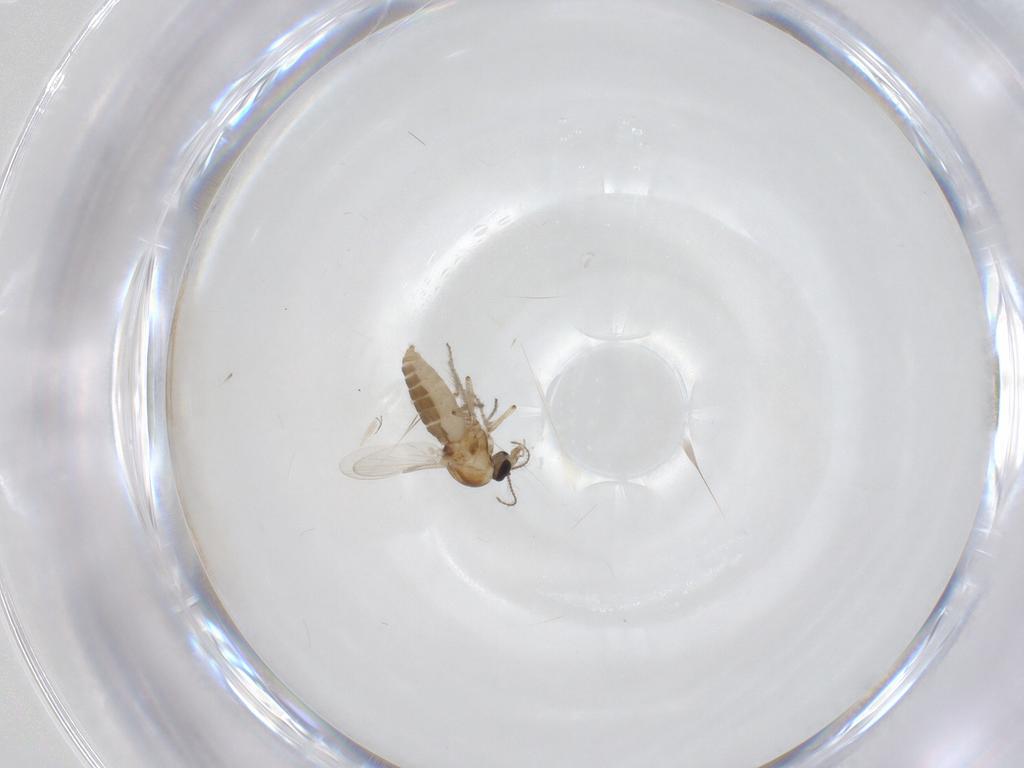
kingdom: Animalia
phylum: Arthropoda
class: Insecta
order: Diptera
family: Ceratopogonidae
